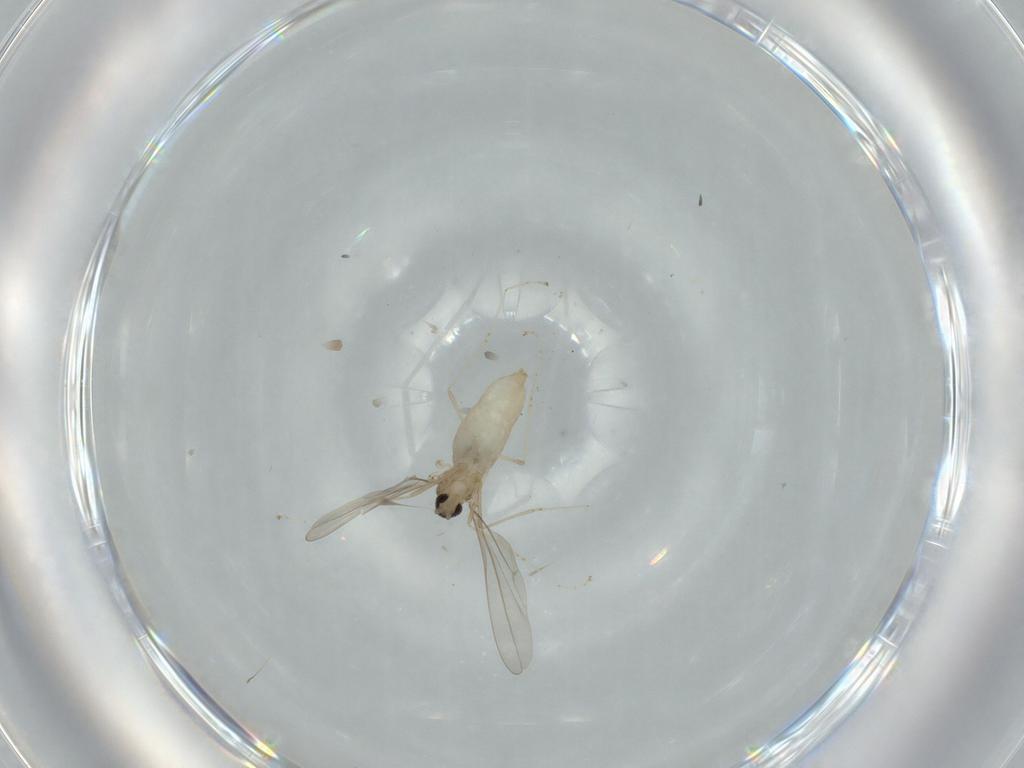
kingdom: Animalia
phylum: Arthropoda
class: Insecta
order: Diptera
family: Cecidomyiidae
